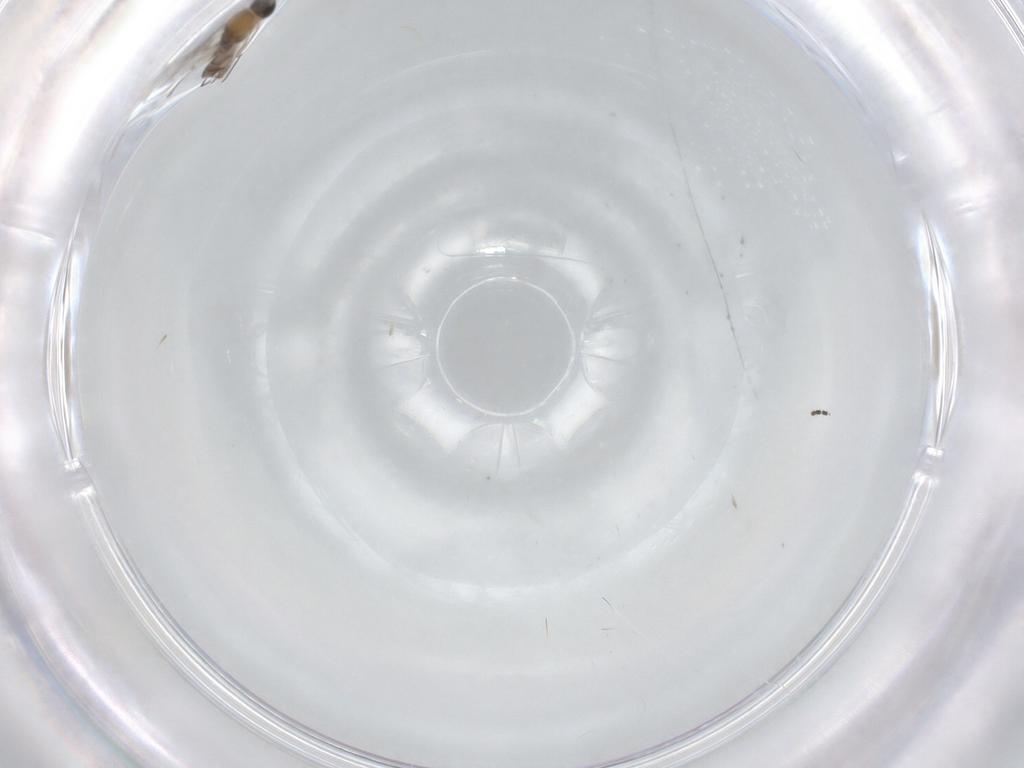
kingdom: Animalia
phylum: Arthropoda
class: Insecta
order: Diptera
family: Sciaridae
